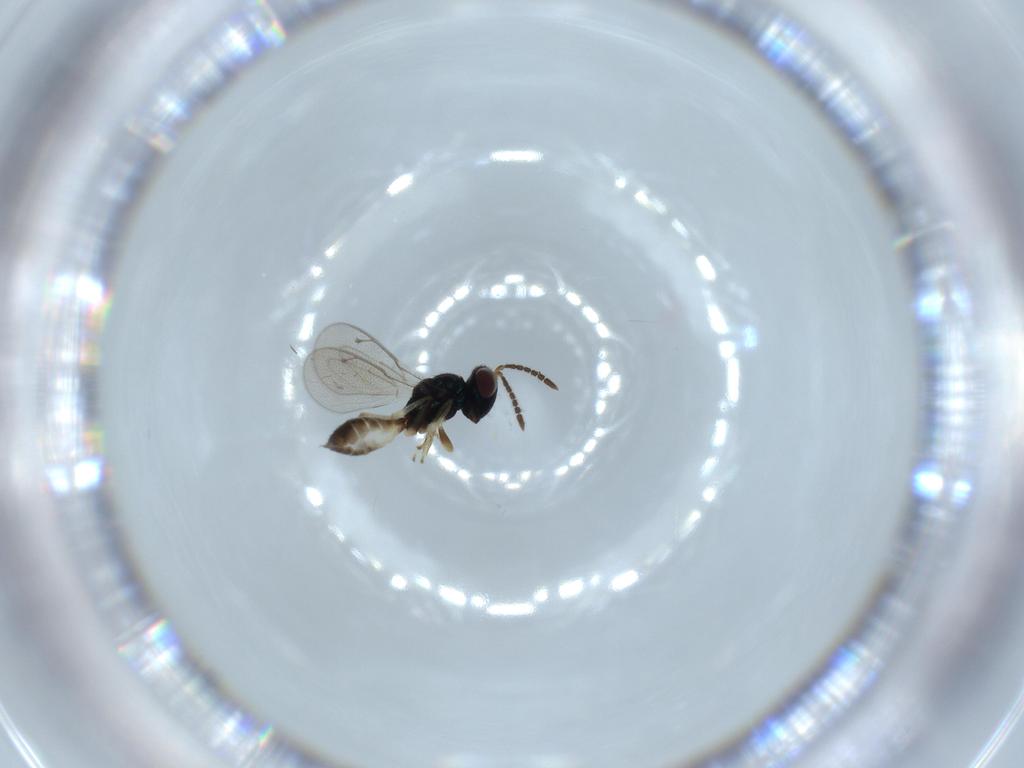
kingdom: Animalia
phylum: Arthropoda
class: Insecta
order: Hymenoptera
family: Pteromalidae
